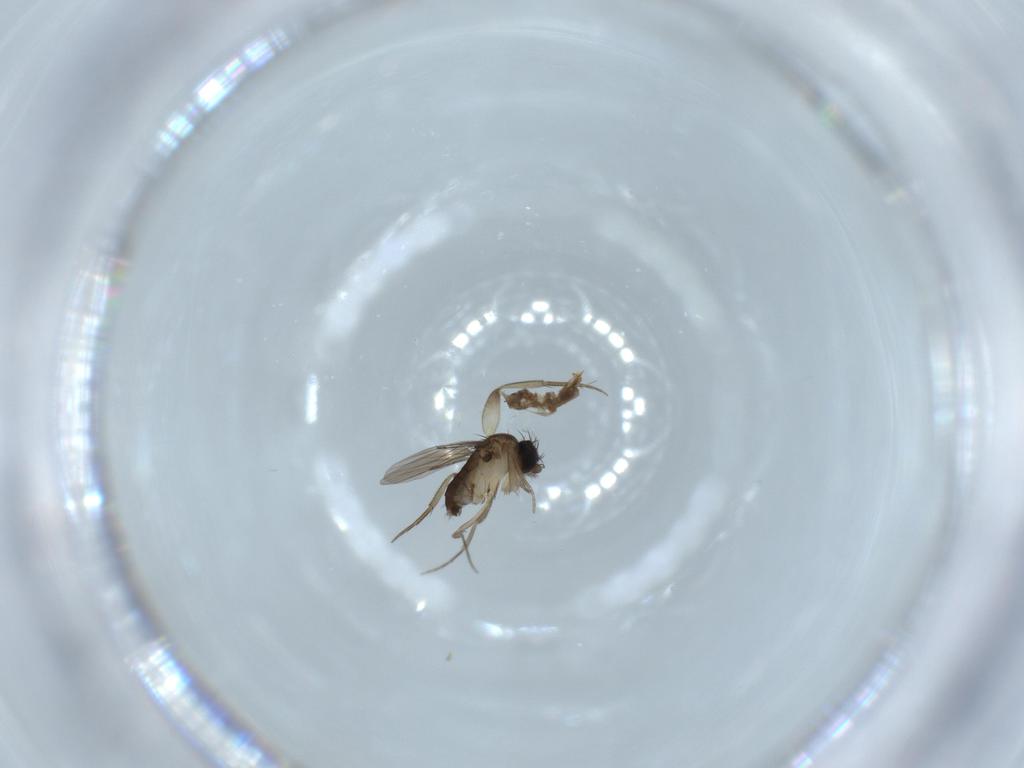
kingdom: Animalia
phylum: Arthropoda
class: Insecta
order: Diptera
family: Phoridae
